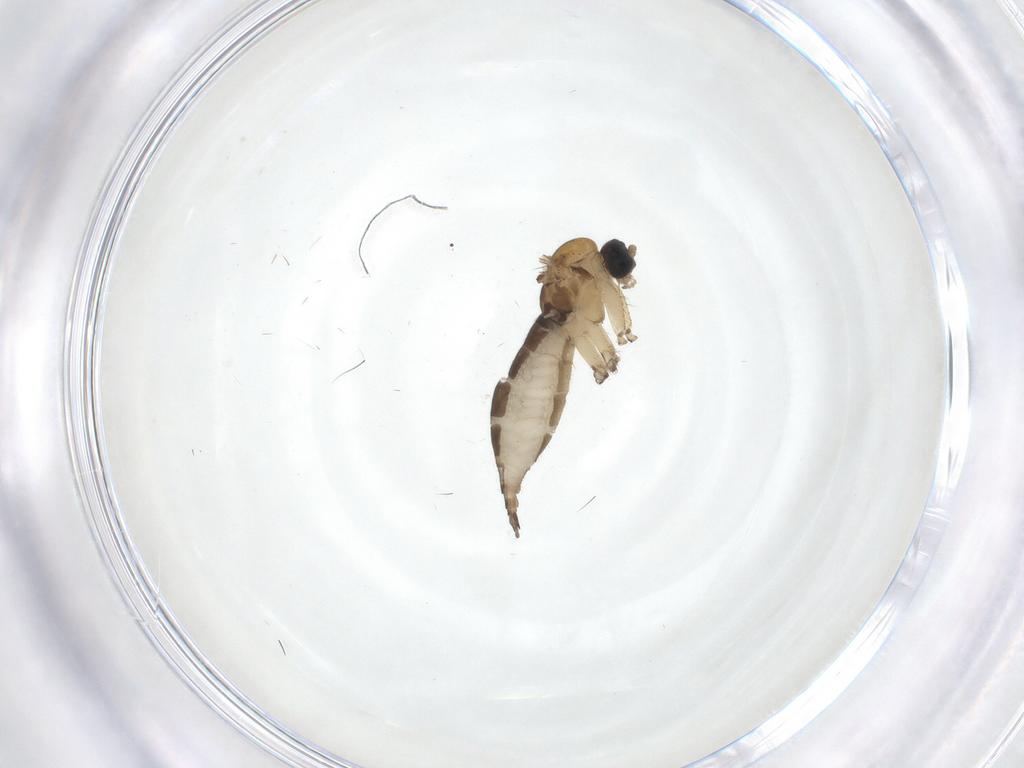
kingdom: Animalia
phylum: Arthropoda
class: Insecta
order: Diptera
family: Sciaridae
